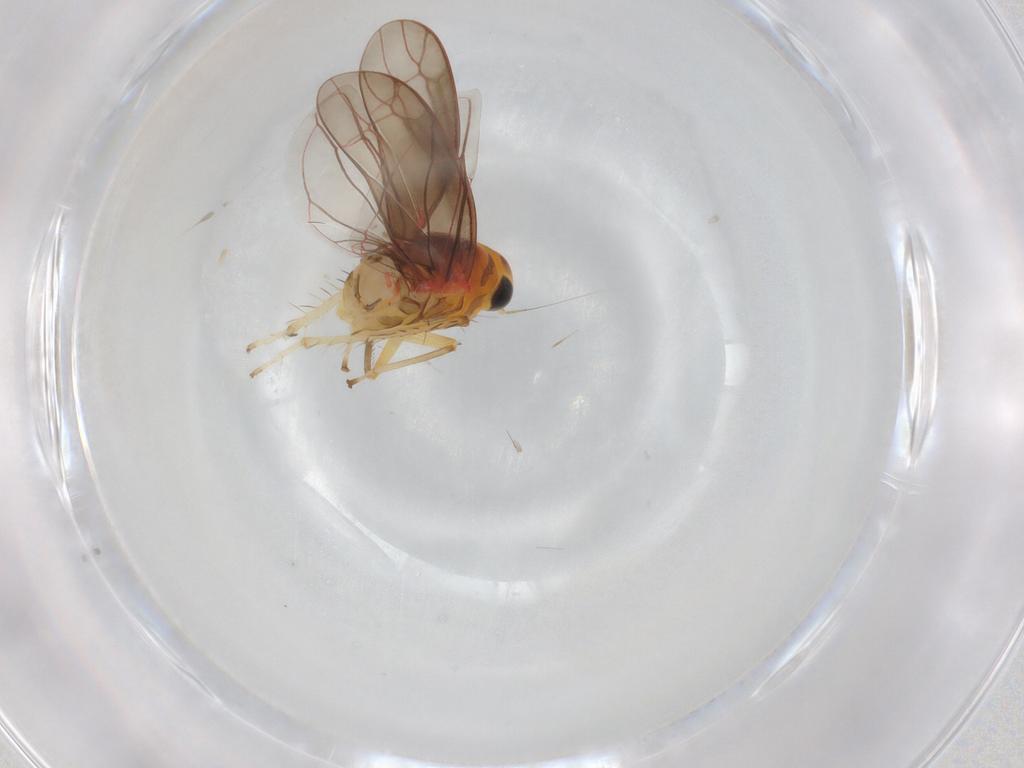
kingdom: Animalia
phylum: Arthropoda
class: Insecta
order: Hemiptera
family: Cicadellidae
